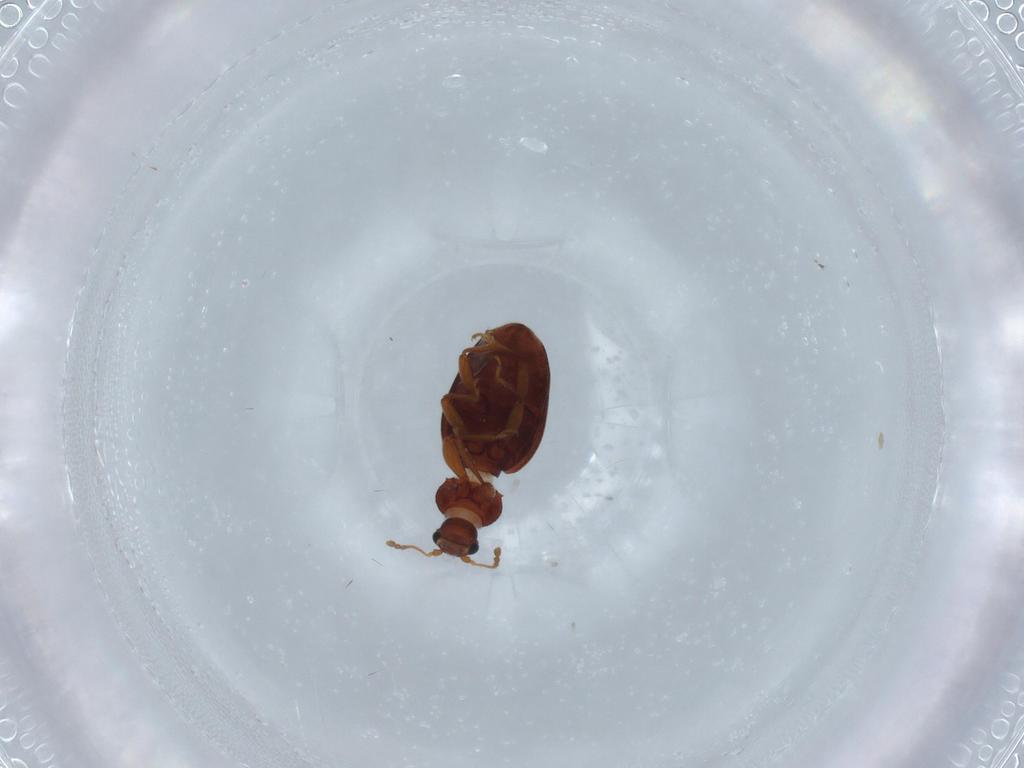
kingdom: Animalia
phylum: Arthropoda
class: Insecta
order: Coleoptera
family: Latridiidae
